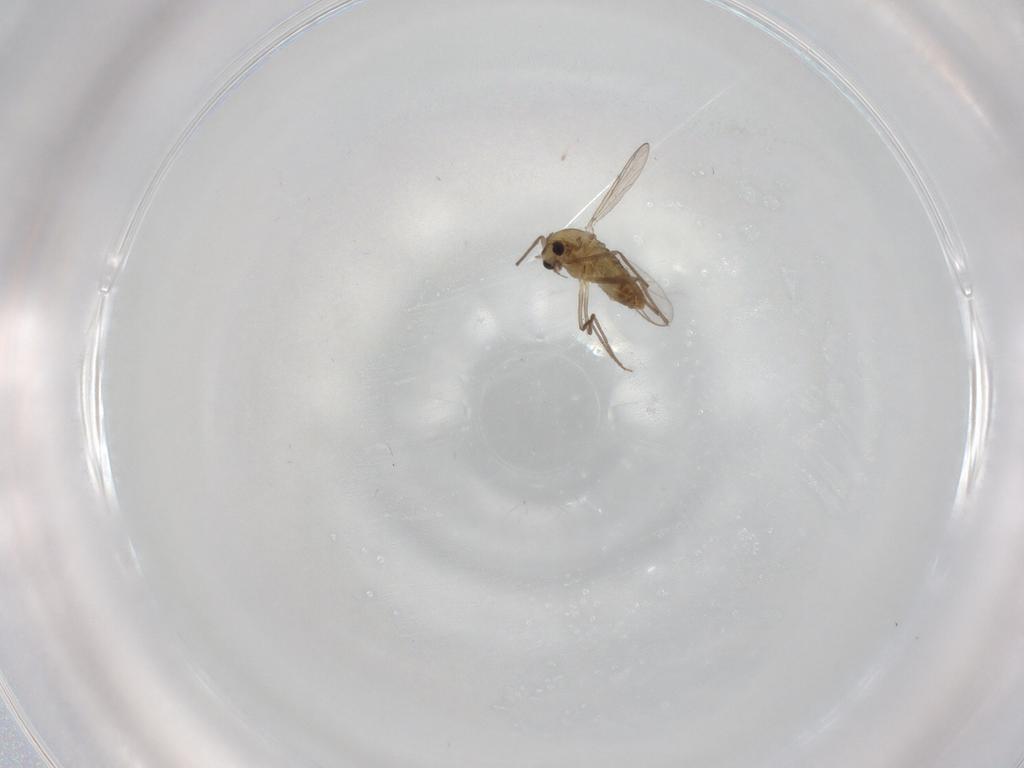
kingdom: Animalia
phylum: Arthropoda
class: Insecta
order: Diptera
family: Chironomidae
